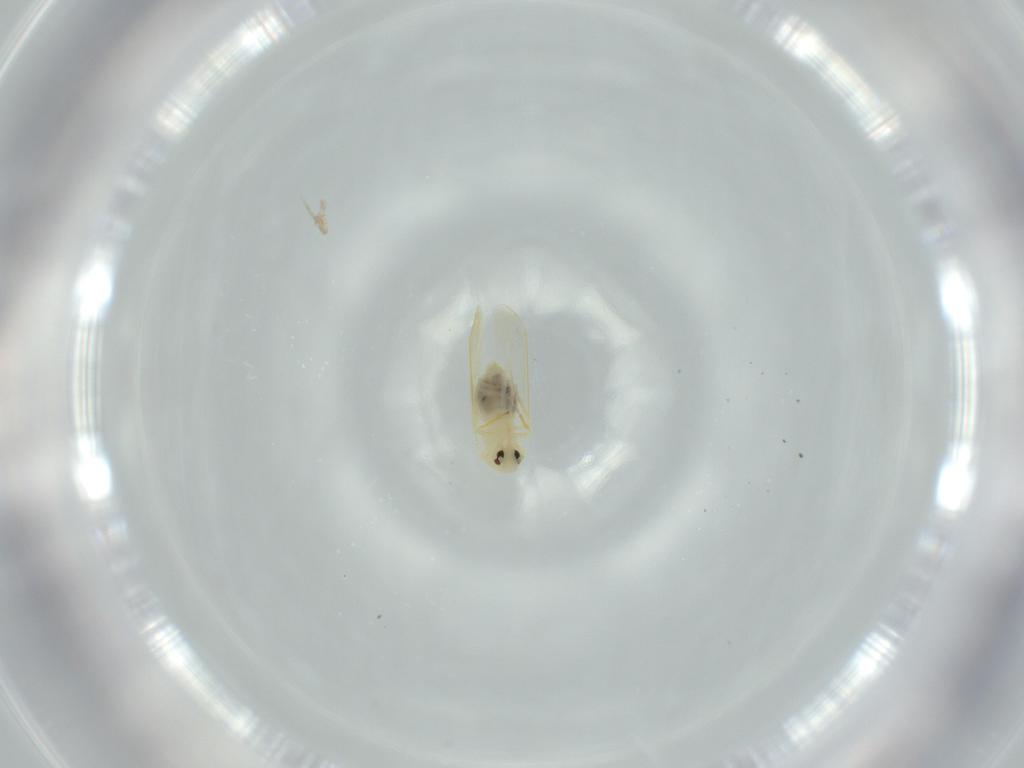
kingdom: Animalia
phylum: Arthropoda
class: Insecta
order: Hemiptera
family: Aleyrodidae
